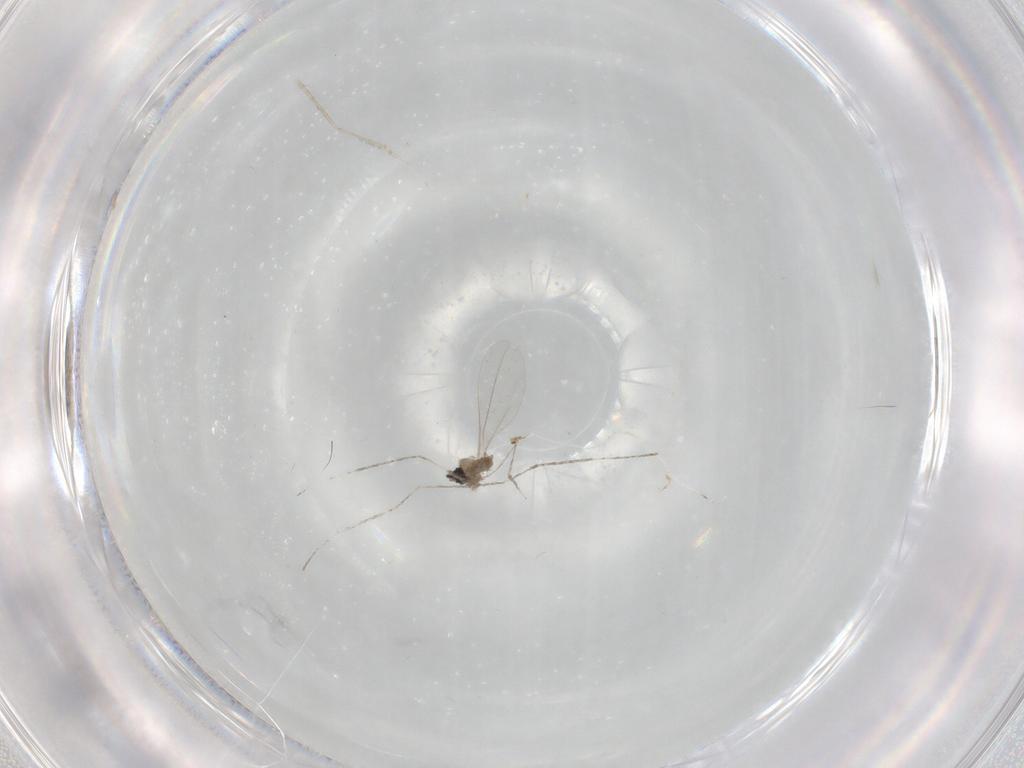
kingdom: Animalia
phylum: Arthropoda
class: Insecta
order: Diptera
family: Cecidomyiidae
